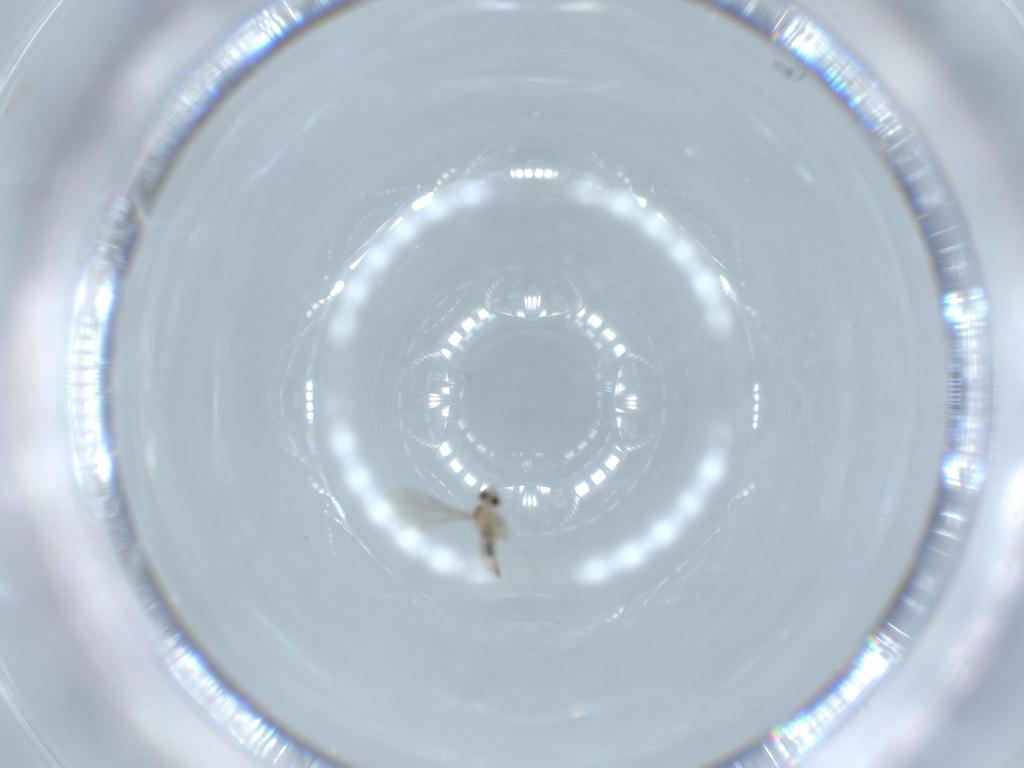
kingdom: Animalia
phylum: Arthropoda
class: Insecta
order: Diptera
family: Cecidomyiidae
